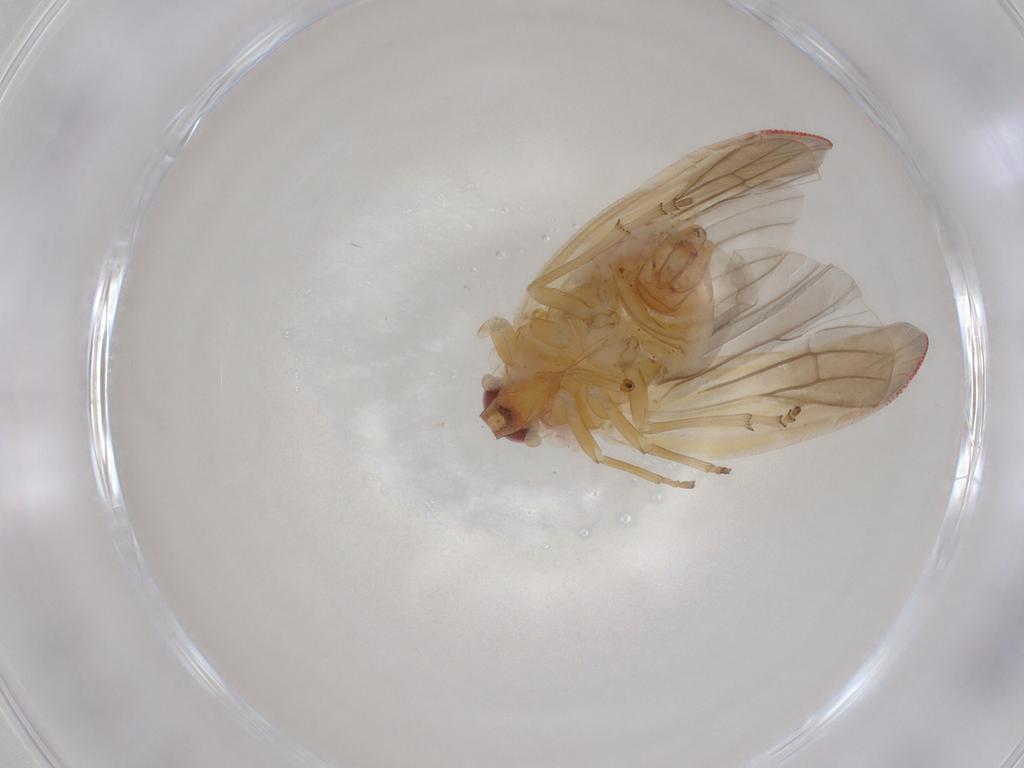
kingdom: Animalia
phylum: Arthropoda
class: Insecta
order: Hemiptera
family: Derbidae
